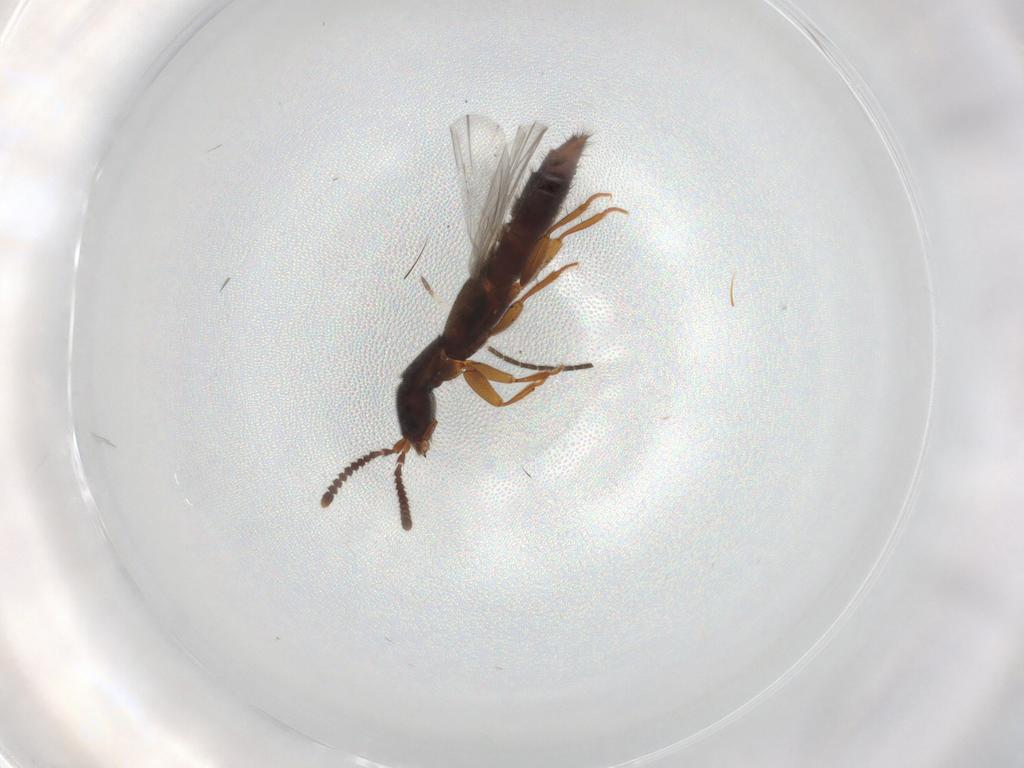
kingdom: Animalia
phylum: Arthropoda
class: Insecta
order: Coleoptera
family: Staphylinidae
